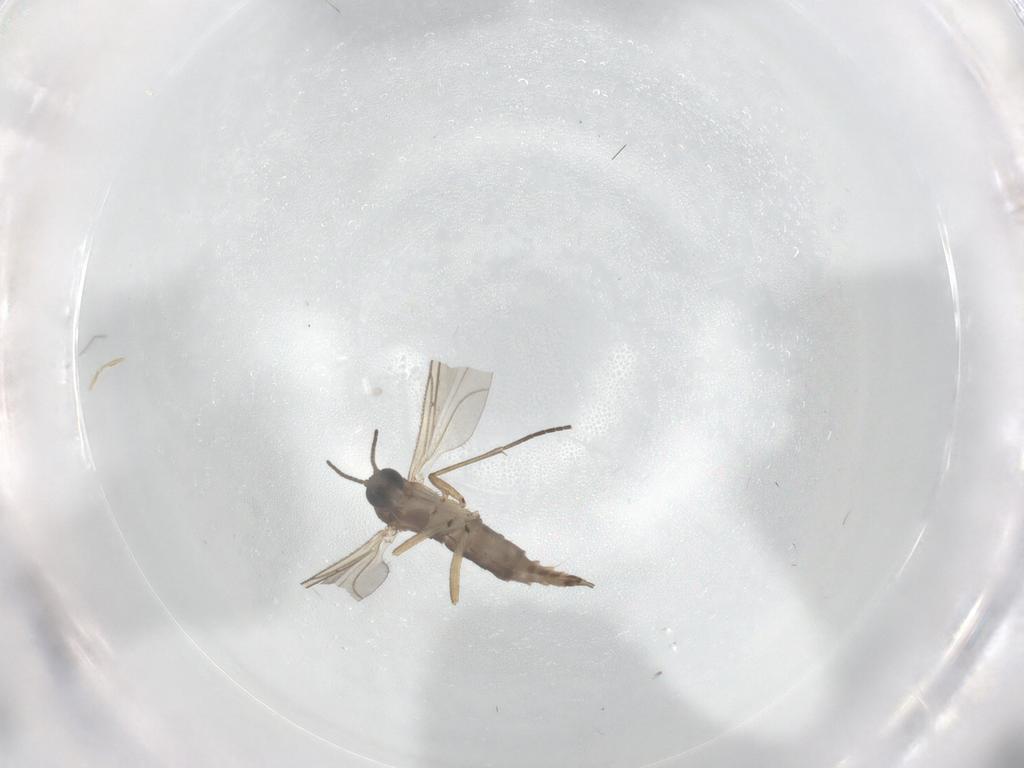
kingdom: Animalia
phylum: Arthropoda
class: Insecta
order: Diptera
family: Sciaridae
